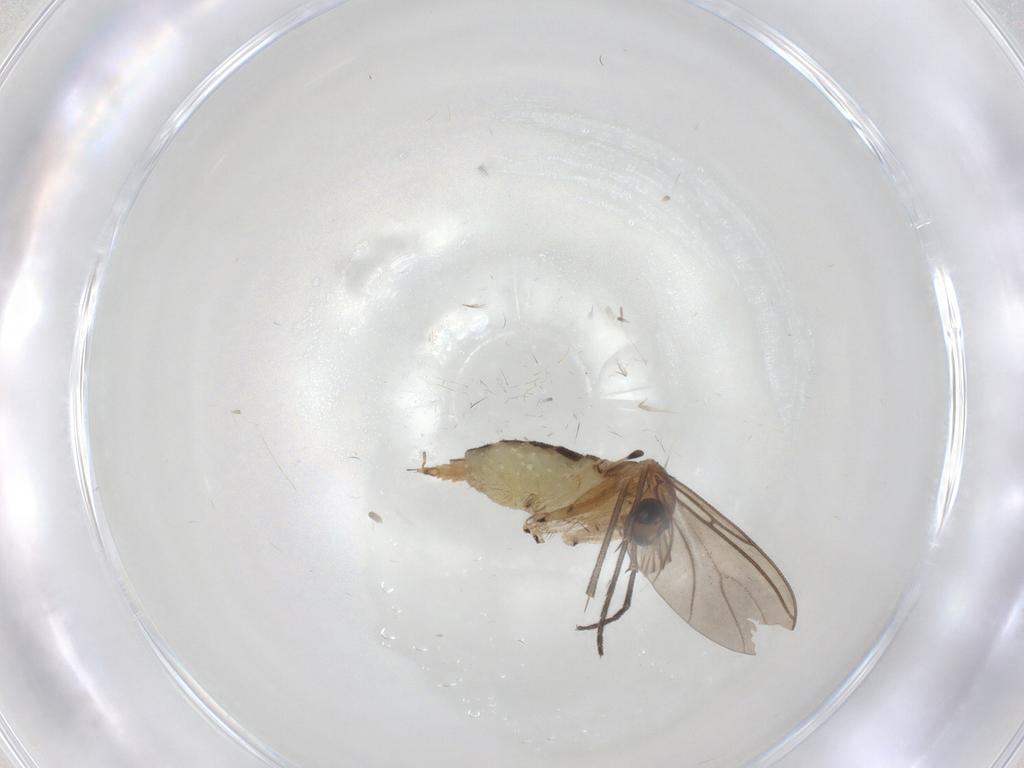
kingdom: Animalia
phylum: Arthropoda
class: Insecta
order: Diptera
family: Sciaridae
